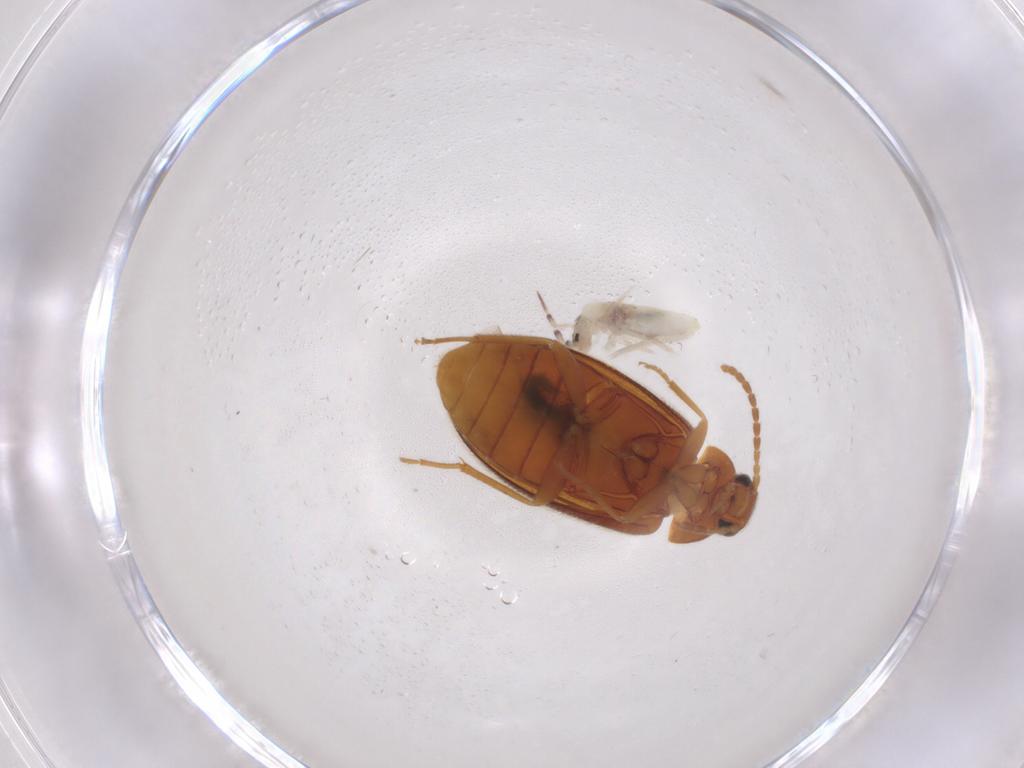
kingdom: Animalia
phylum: Arthropoda
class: Insecta
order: Coleoptera
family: Scraptiidae
